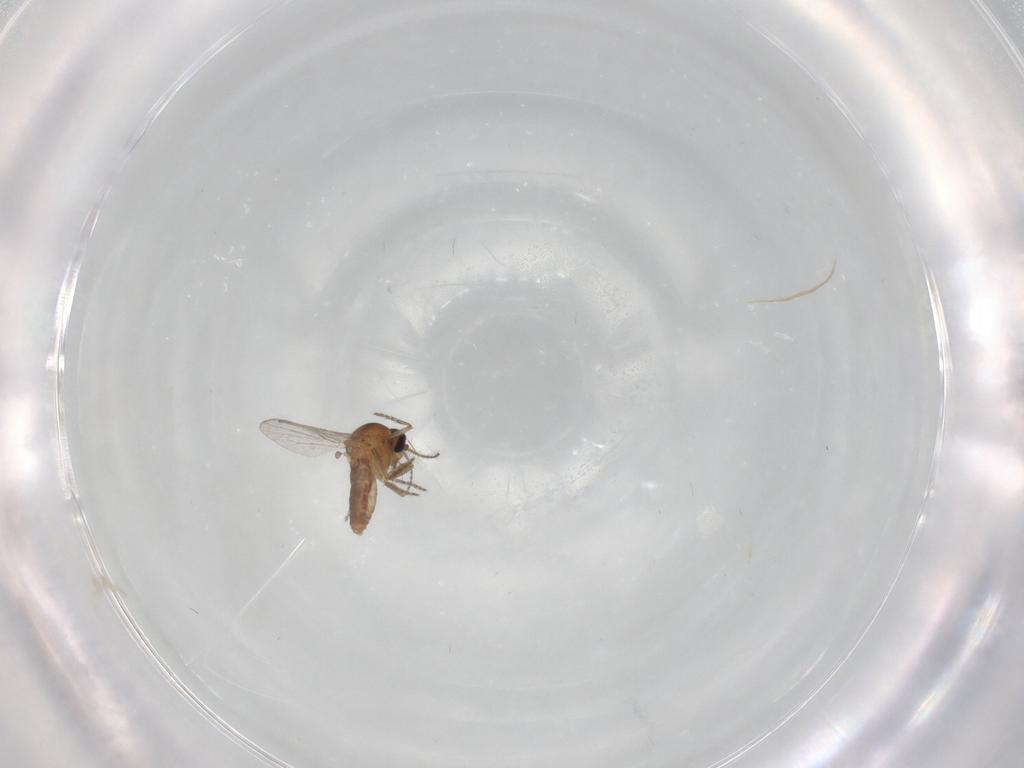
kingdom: Animalia
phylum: Arthropoda
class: Insecta
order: Diptera
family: Ceratopogonidae
